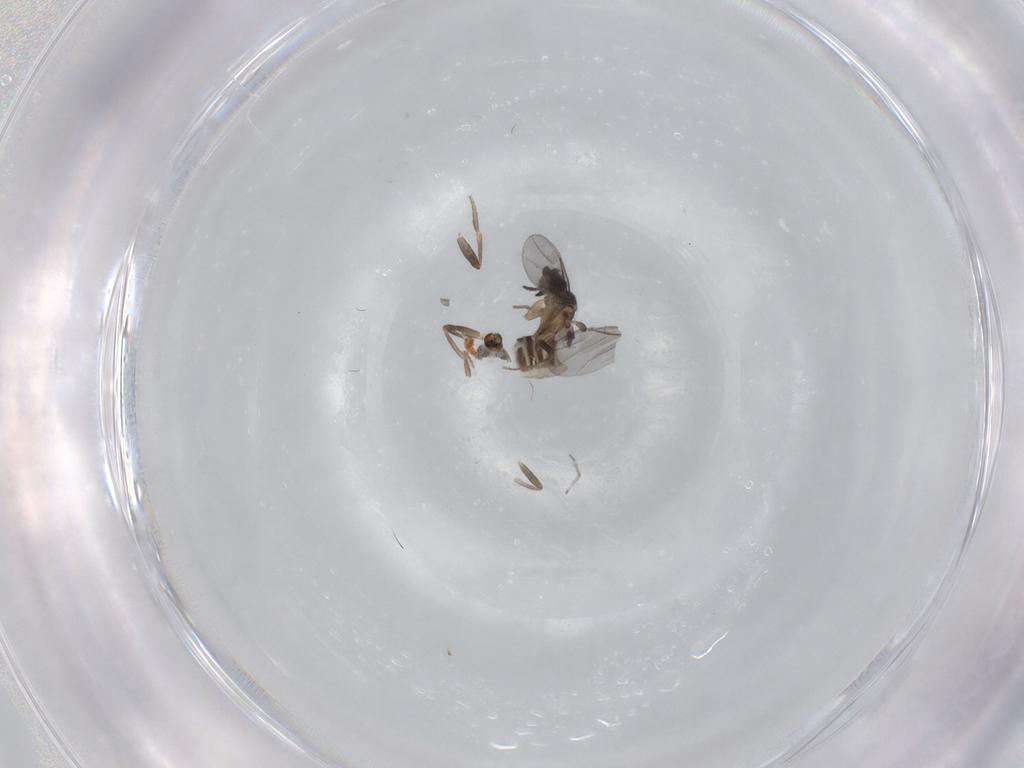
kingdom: Animalia
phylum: Arthropoda
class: Insecta
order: Diptera
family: Phoridae
